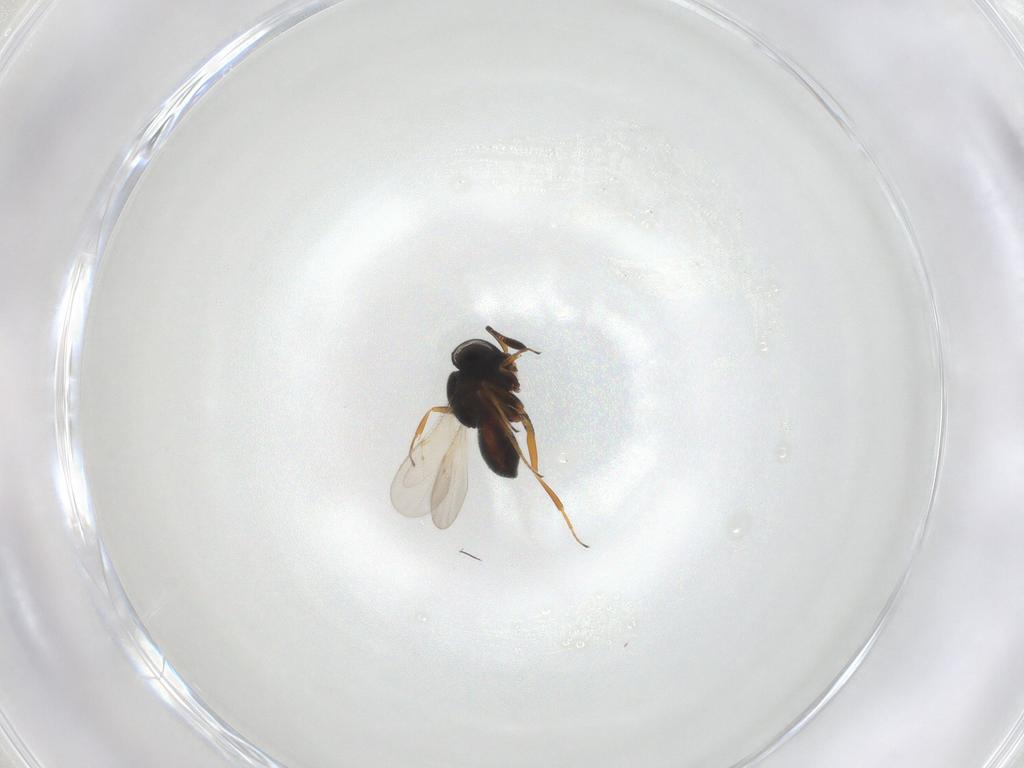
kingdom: Animalia
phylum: Arthropoda
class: Insecta
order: Hymenoptera
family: Scelionidae
